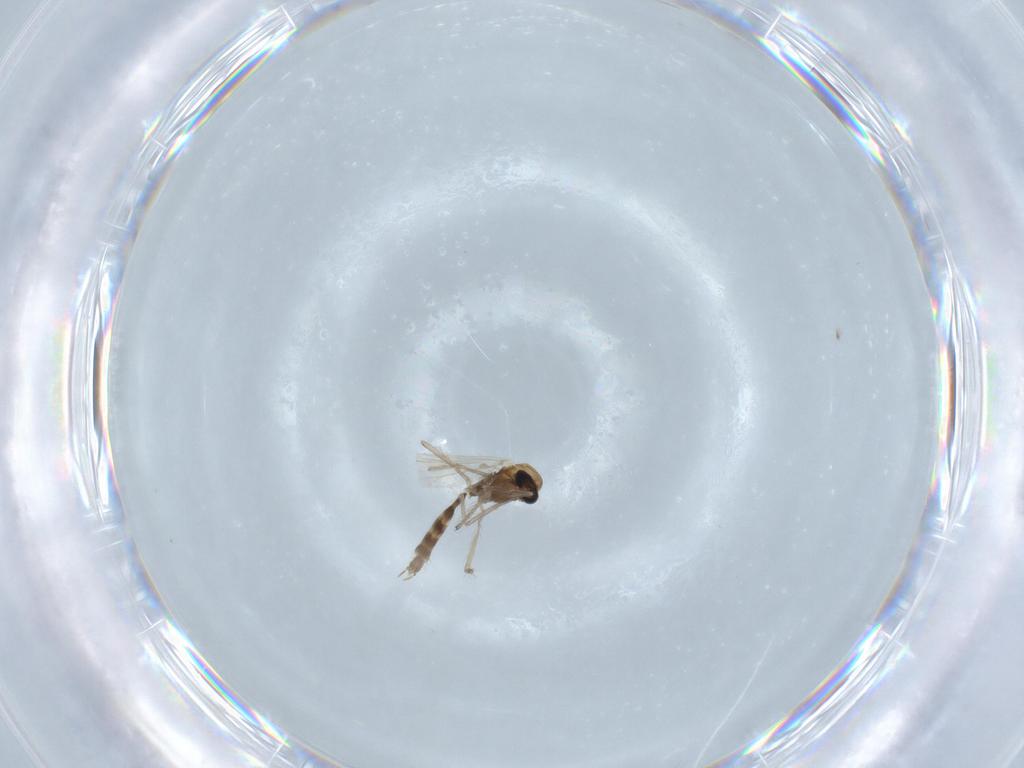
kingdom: Animalia
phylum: Arthropoda
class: Insecta
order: Diptera
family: Chironomidae
